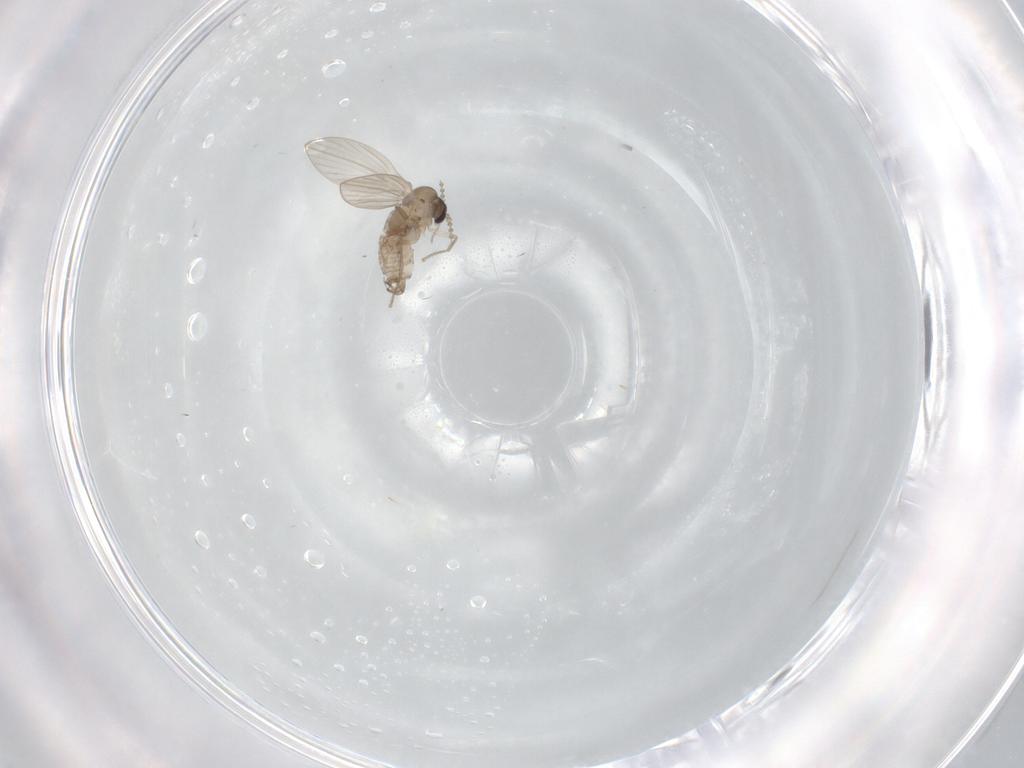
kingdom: Animalia
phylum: Arthropoda
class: Insecta
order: Diptera
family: Psychodidae
